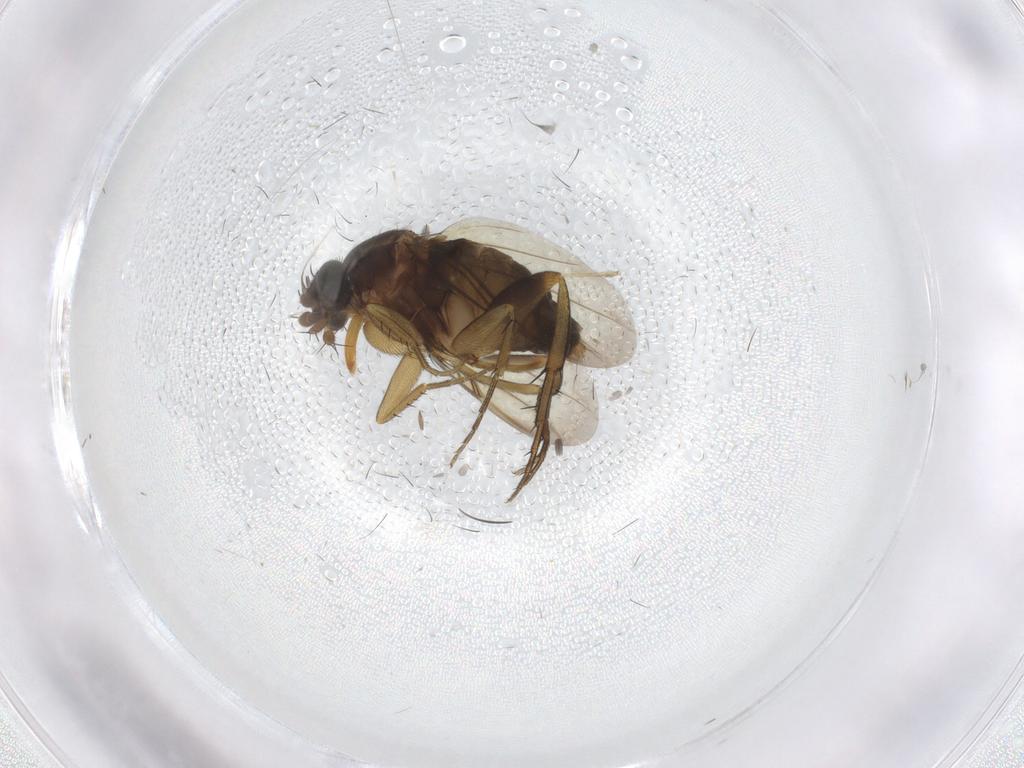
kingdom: Animalia
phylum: Arthropoda
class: Insecta
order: Diptera
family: Phoridae
